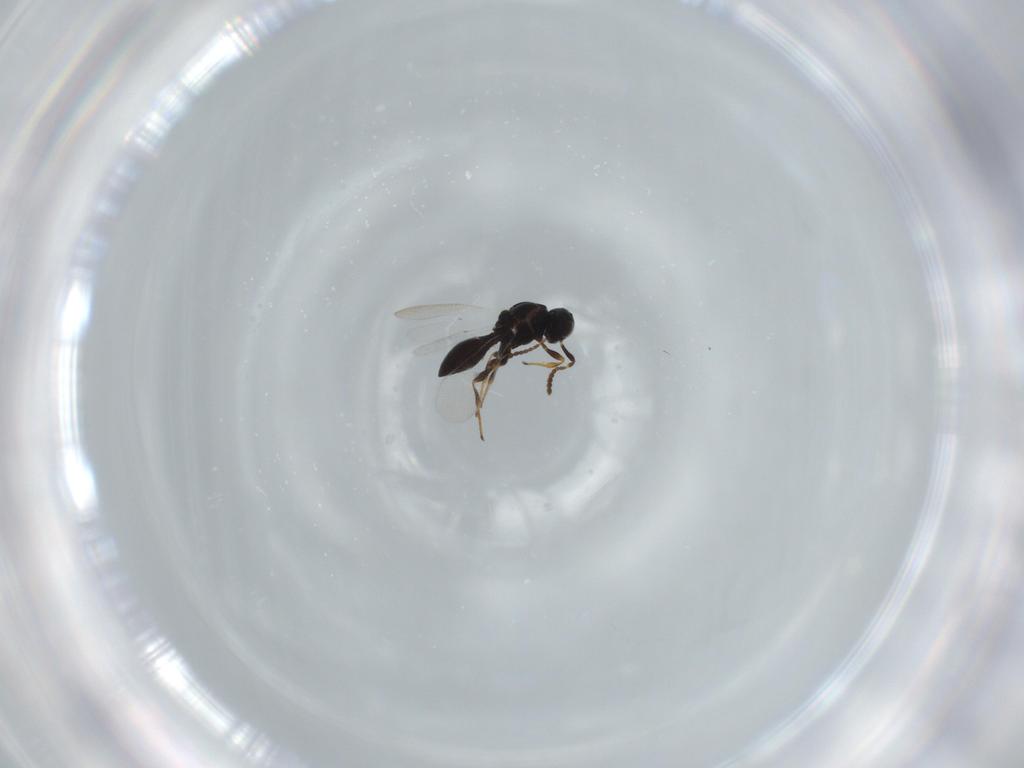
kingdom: Animalia
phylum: Arthropoda
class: Insecta
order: Hymenoptera
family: Platygastridae
